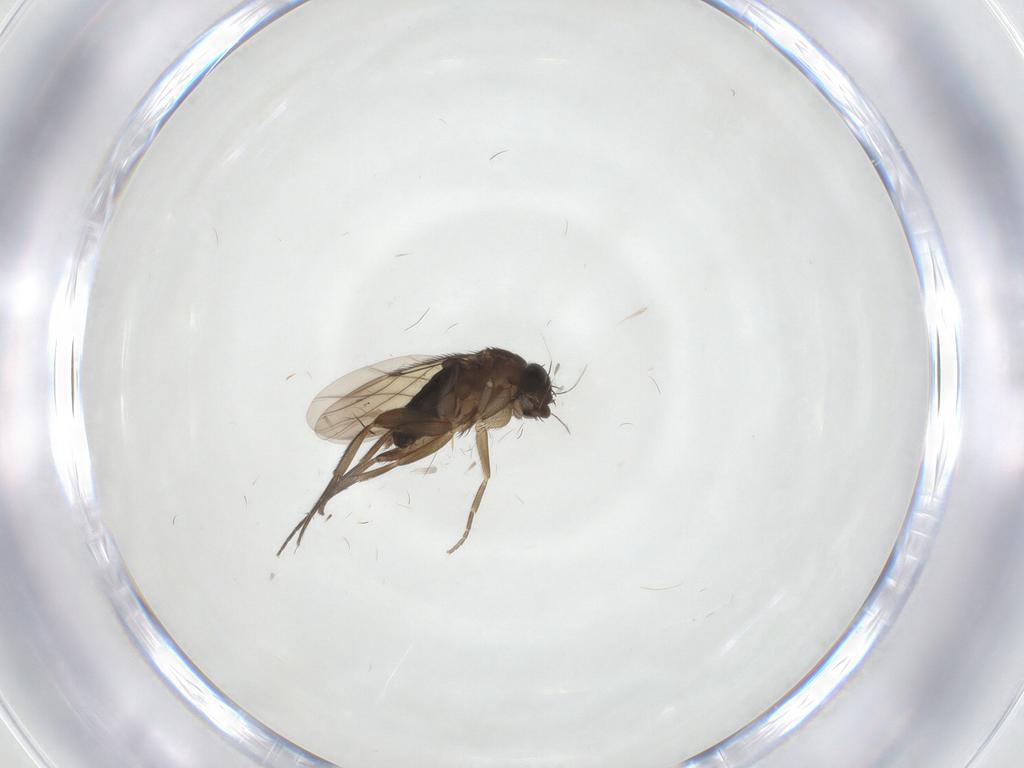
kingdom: Animalia
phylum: Arthropoda
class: Insecta
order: Diptera
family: Phoridae
